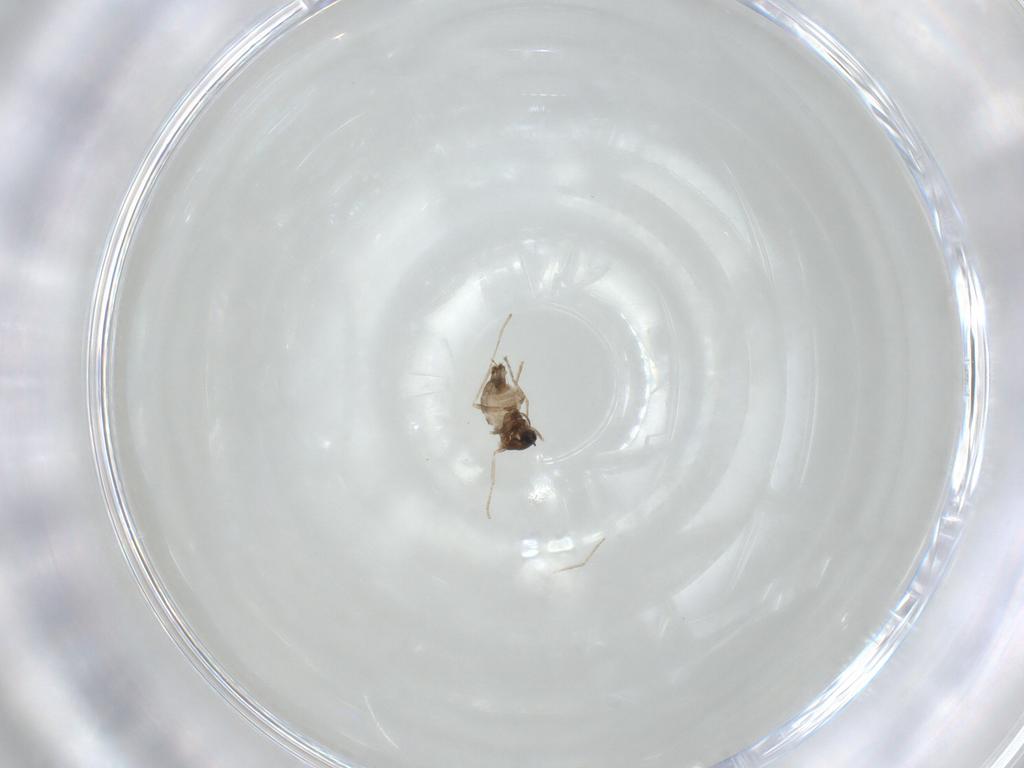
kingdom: Animalia
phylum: Arthropoda
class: Insecta
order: Diptera
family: Cecidomyiidae
